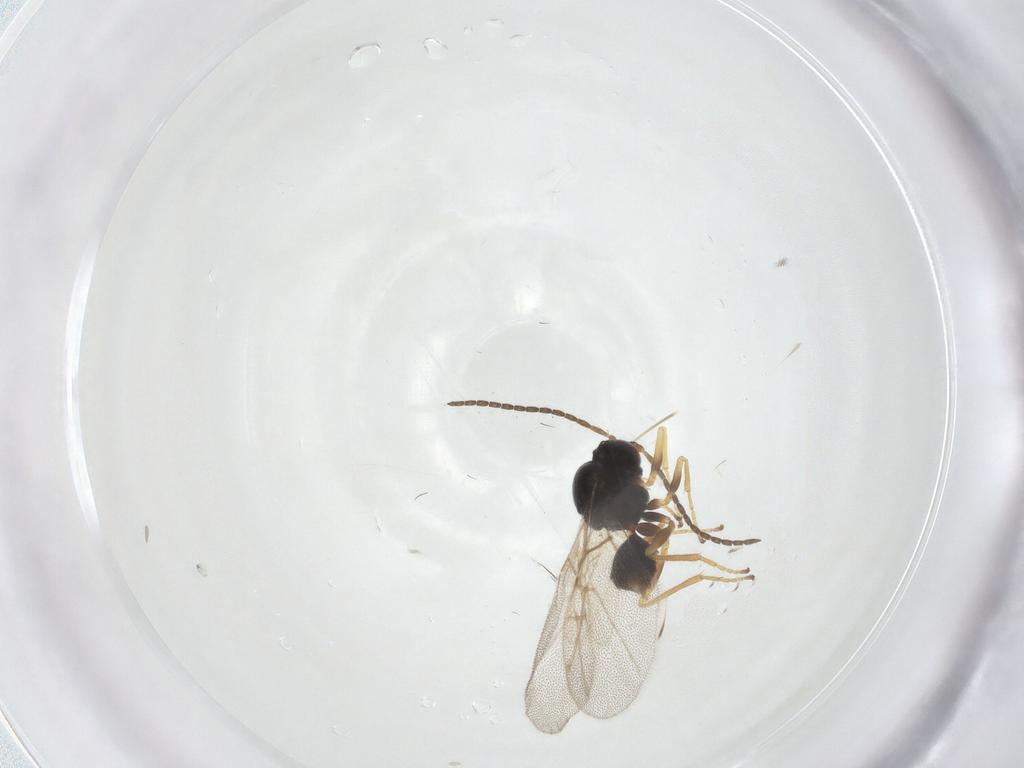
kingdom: Animalia
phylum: Arthropoda
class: Insecta
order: Hymenoptera
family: Cynipidae
